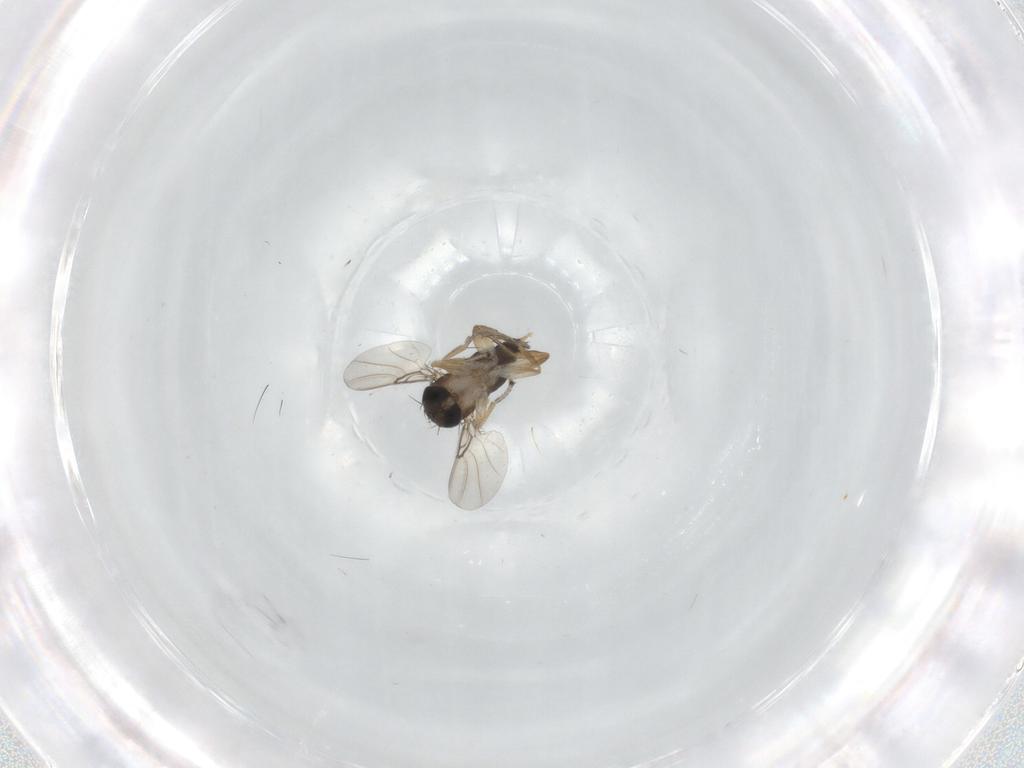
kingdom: Animalia
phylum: Arthropoda
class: Insecta
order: Diptera
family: Phoridae
